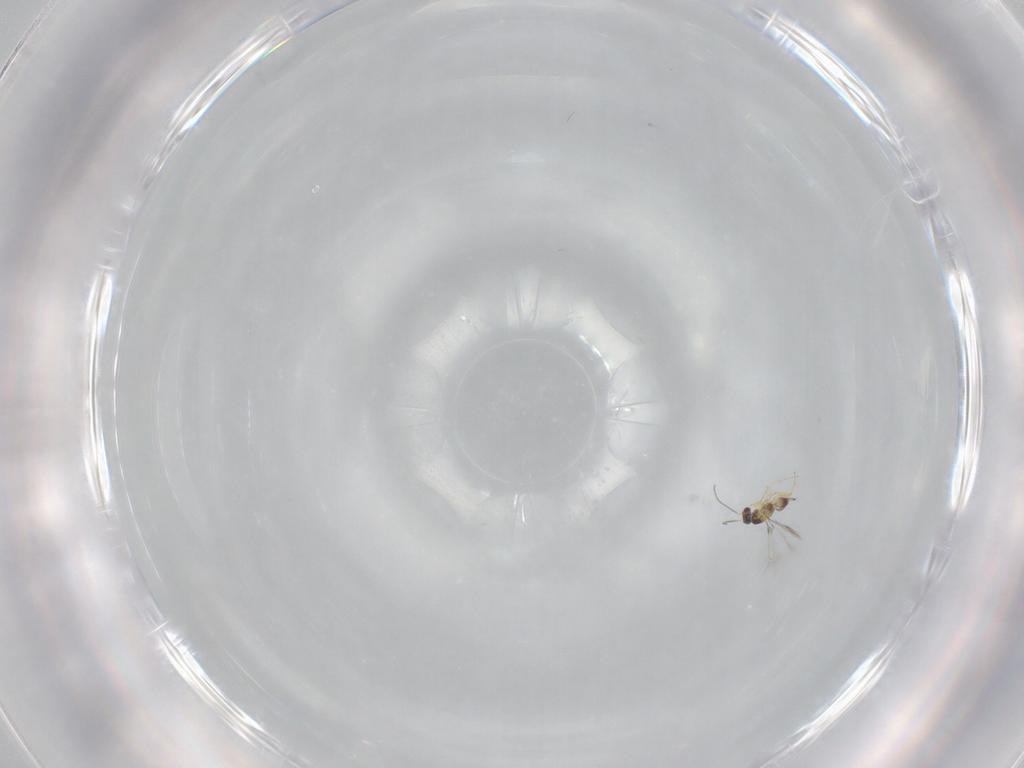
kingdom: Animalia
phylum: Arthropoda
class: Insecta
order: Hymenoptera
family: Mymaridae
